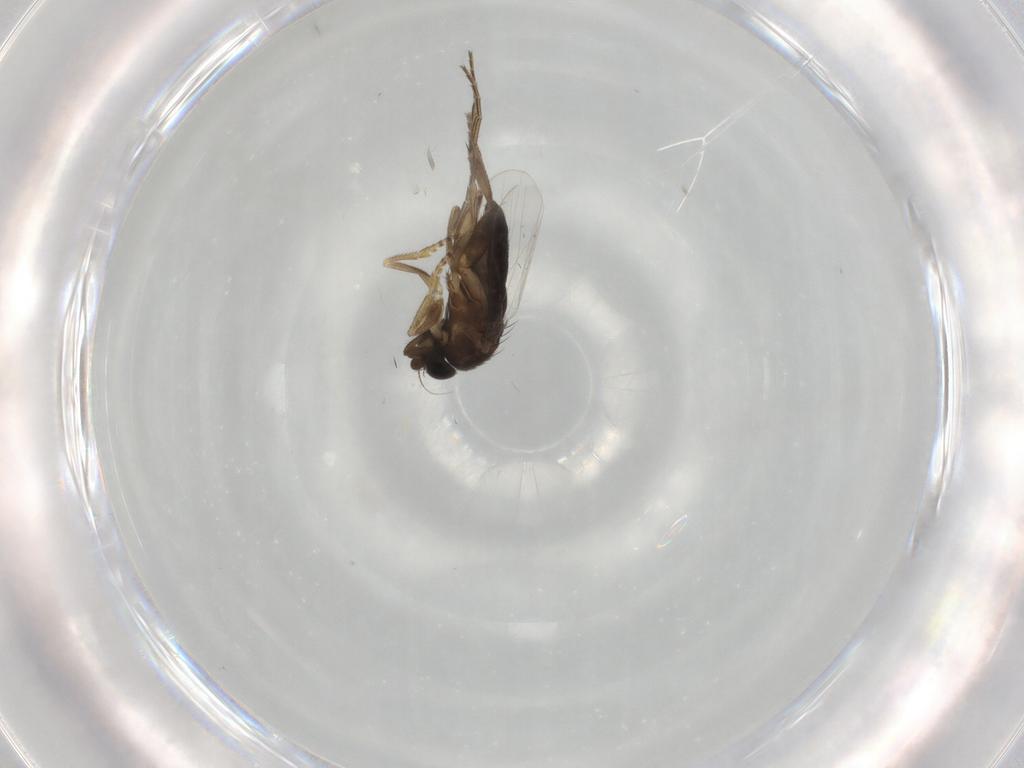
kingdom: Animalia
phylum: Arthropoda
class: Insecta
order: Diptera
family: Phoridae
